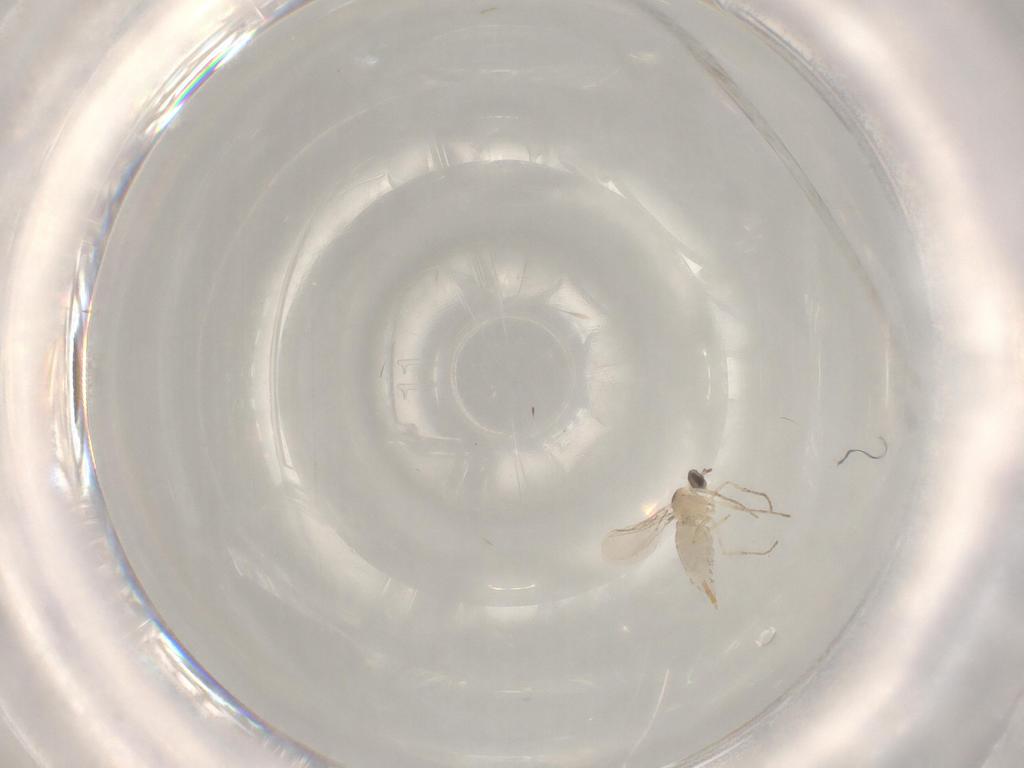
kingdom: Animalia
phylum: Arthropoda
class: Insecta
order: Diptera
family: Cecidomyiidae
